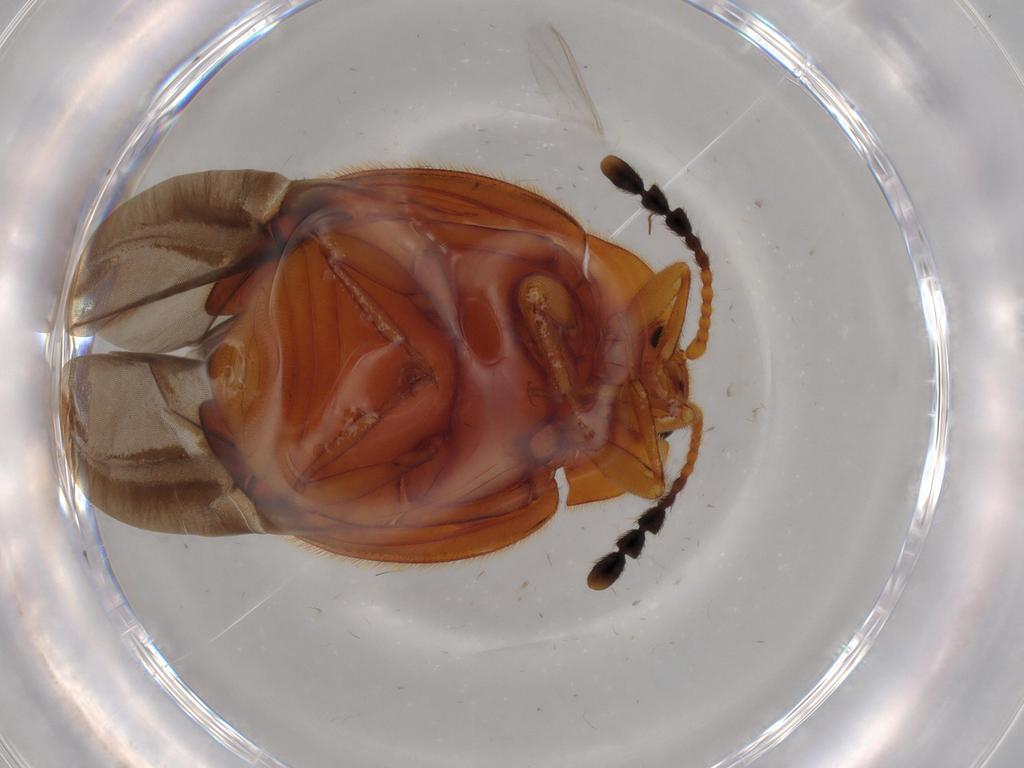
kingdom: Animalia
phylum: Arthropoda
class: Insecta
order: Coleoptera
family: Endomychidae
